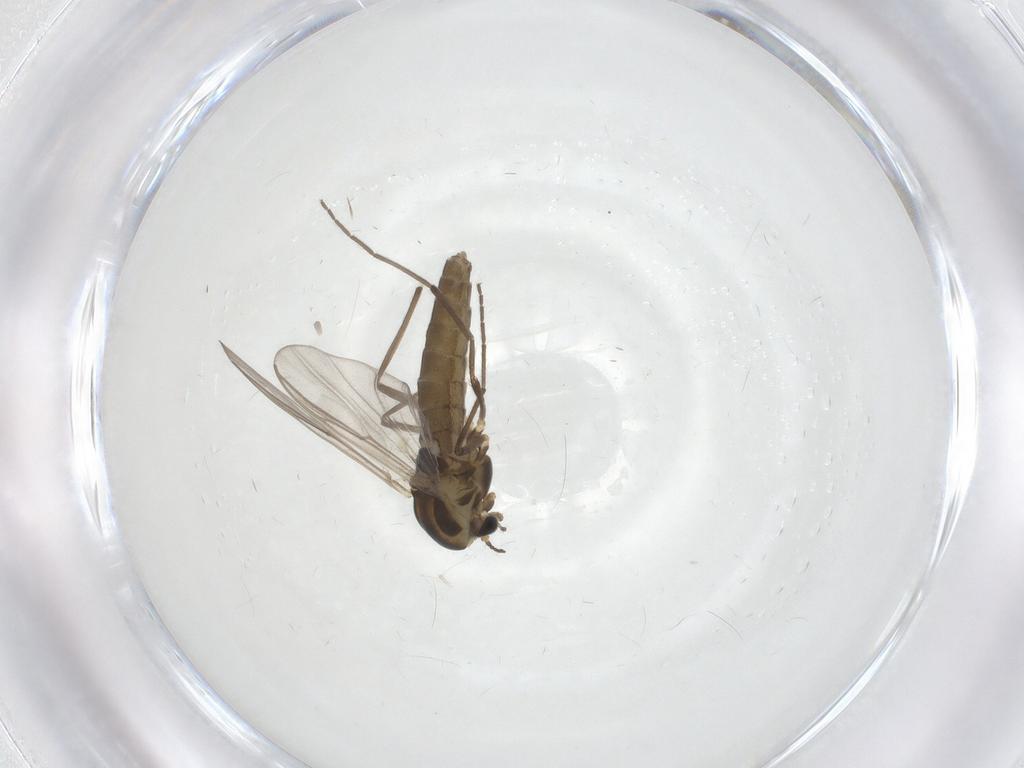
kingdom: Animalia
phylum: Arthropoda
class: Insecta
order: Diptera
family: Chironomidae
